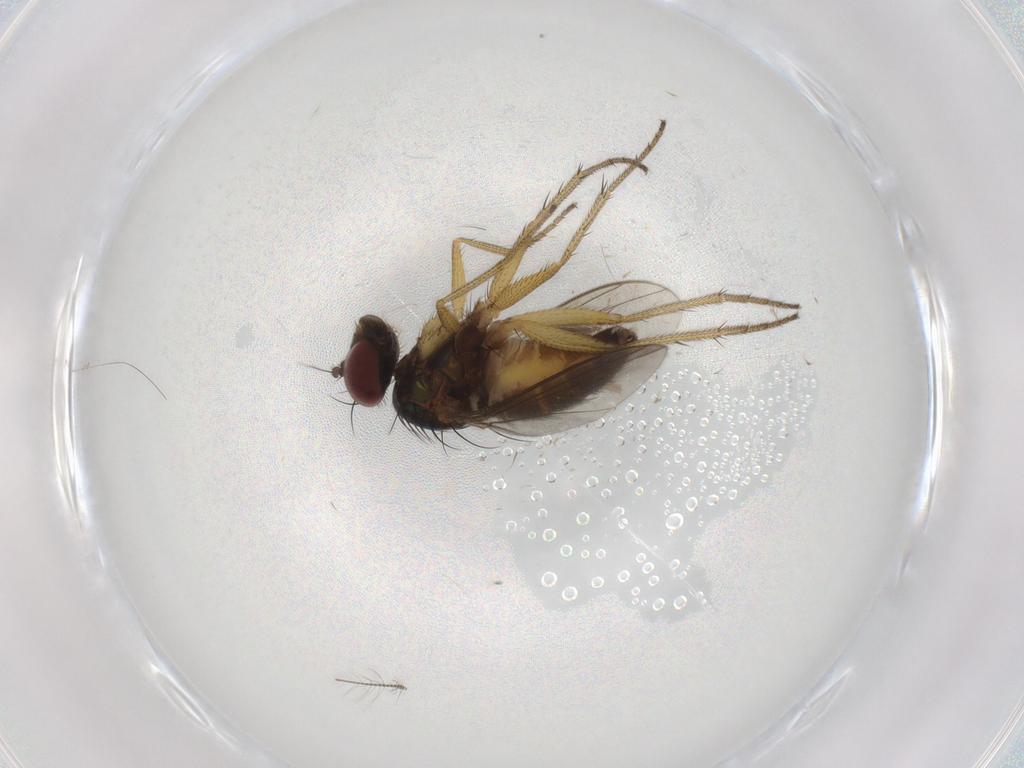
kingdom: Animalia
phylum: Arthropoda
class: Insecta
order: Diptera
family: Dolichopodidae
